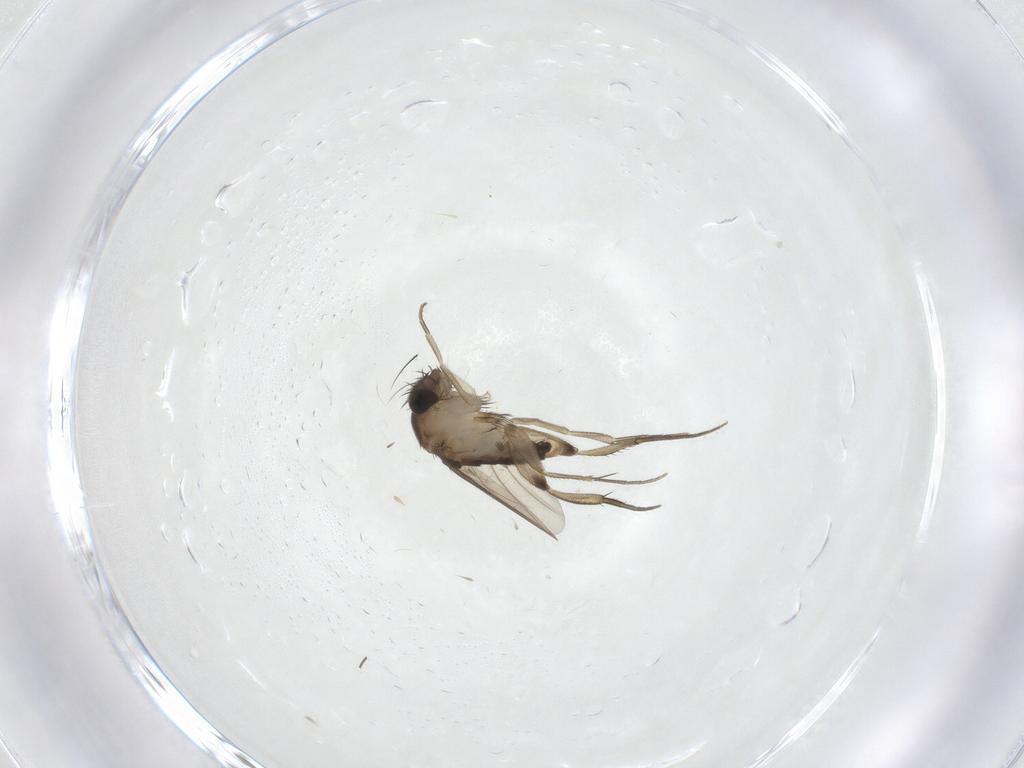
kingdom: Animalia
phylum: Arthropoda
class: Insecta
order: Diptera
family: Phoridae
